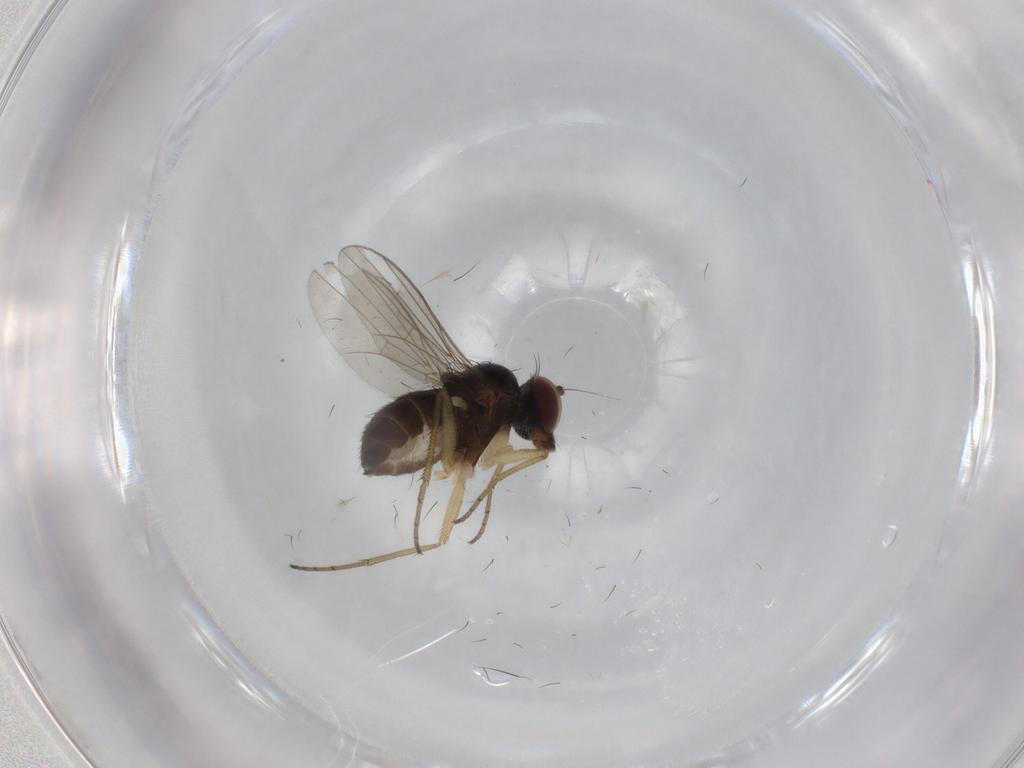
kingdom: Animalia
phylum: Arthropoda
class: Insecta
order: Diptera
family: Dolichopodidae
